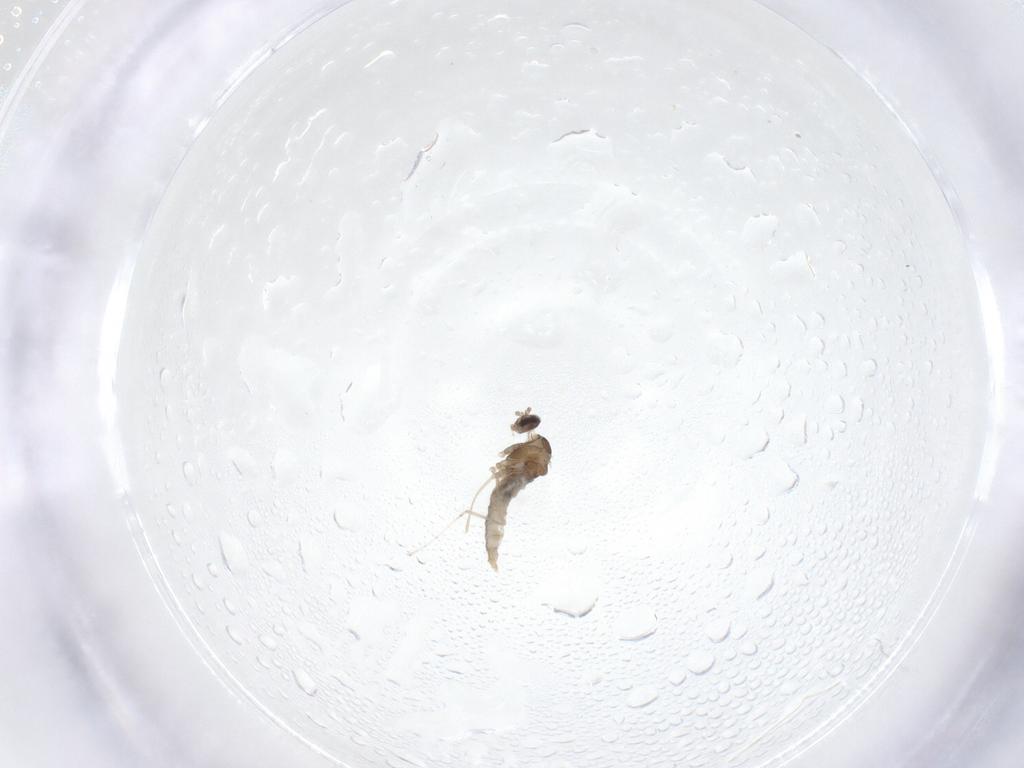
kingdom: Animalia
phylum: Arthropoda
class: Insecta
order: Diptera
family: Cecidomyiidae
